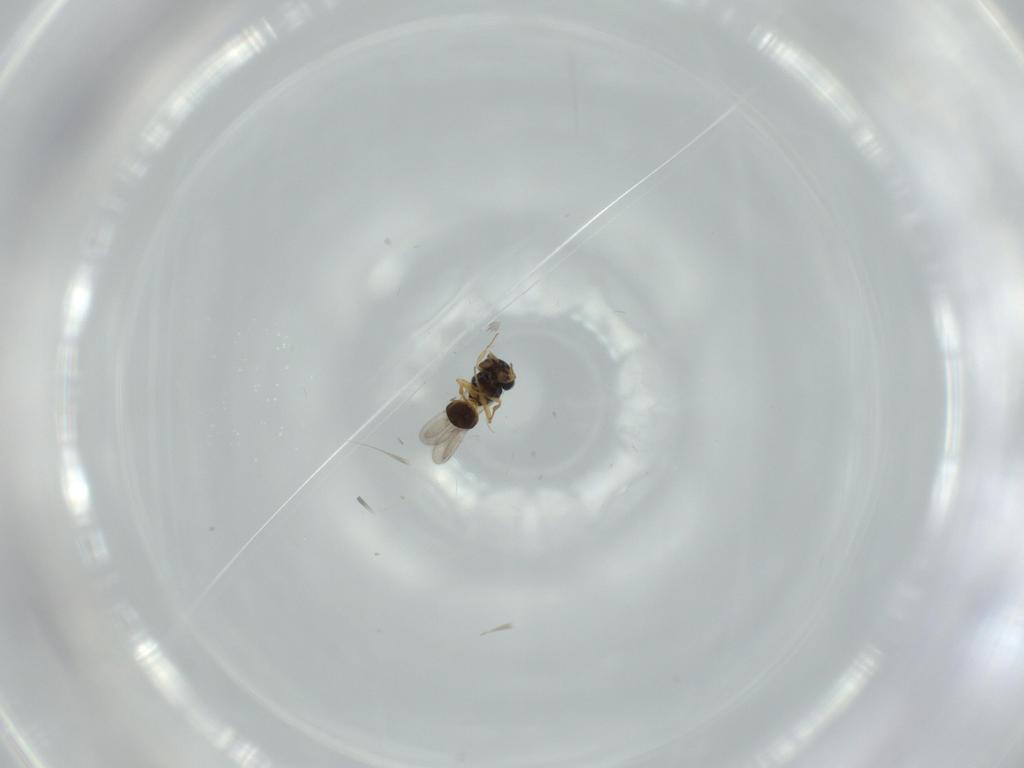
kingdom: Animalia
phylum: Arthropoda
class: Insecta
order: Hymenoptera
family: Scelionidae
